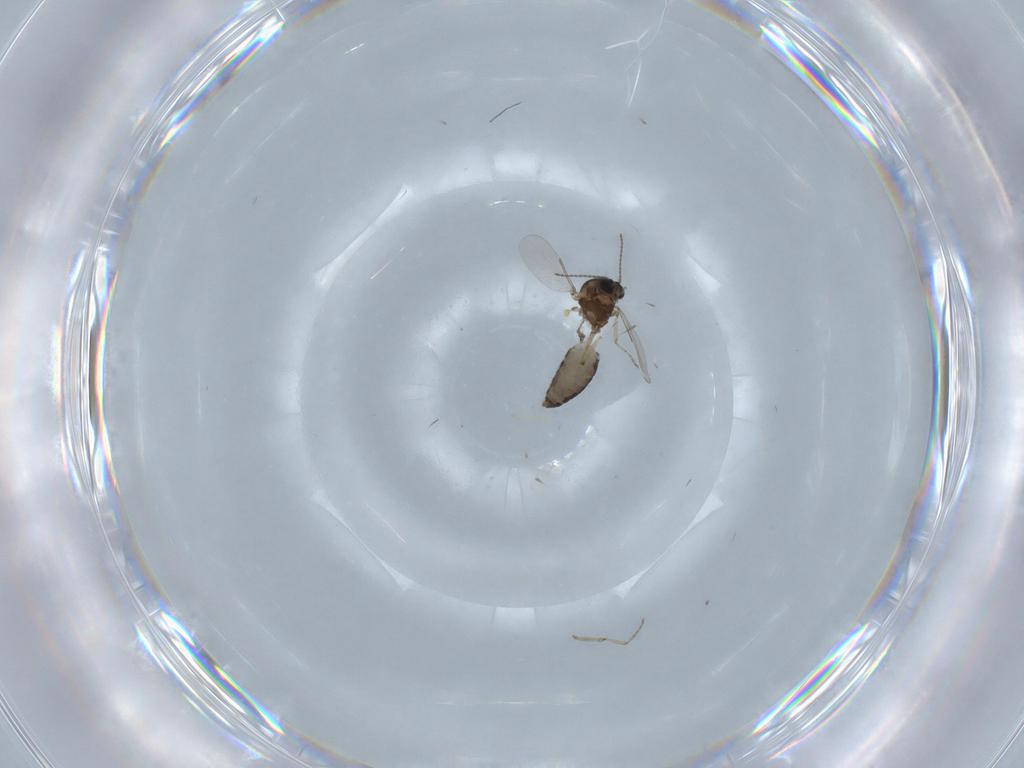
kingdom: Animalia
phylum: Arthropoda
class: Insecta
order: Diptera
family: Ceratopogonidae
